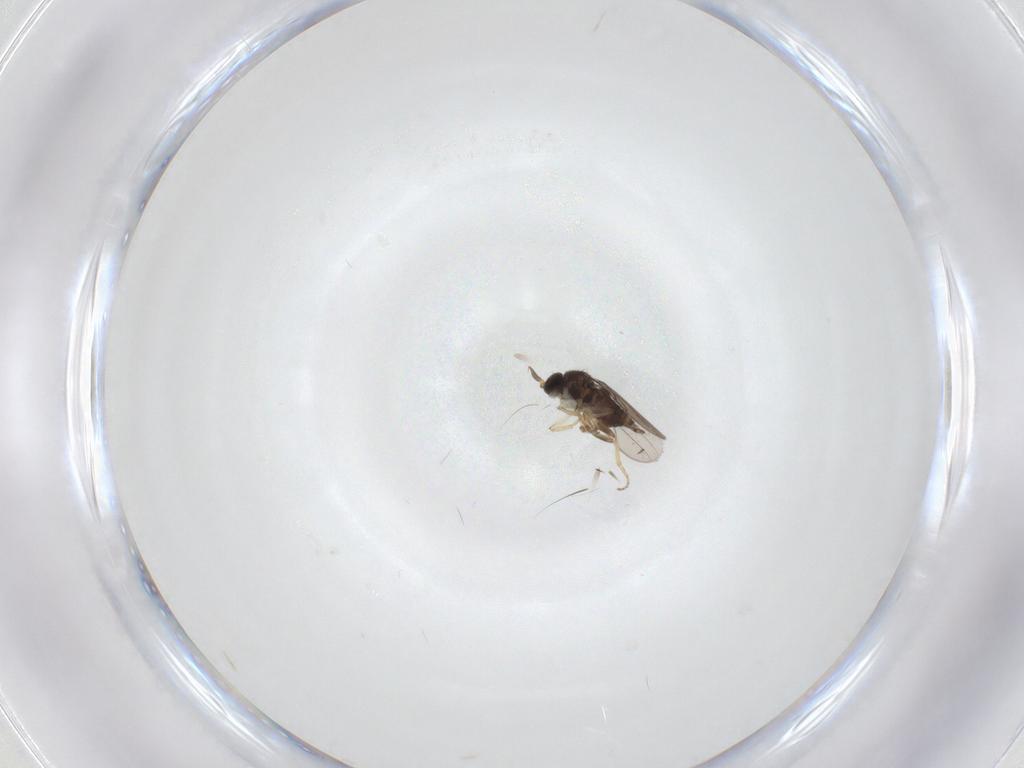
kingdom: Animalia
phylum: Arthropoda
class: Insecta
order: Diptera
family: Hybotidae
